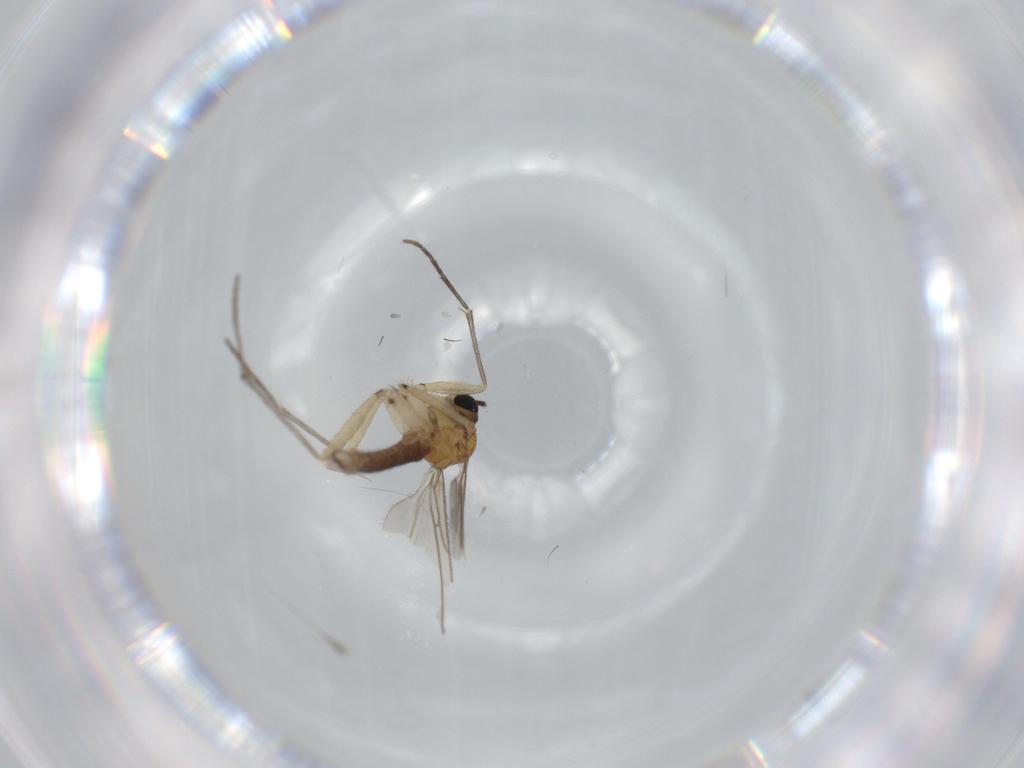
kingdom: Animalia
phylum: Arthropoda
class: Insecta
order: Diptera
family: Sciaridae
